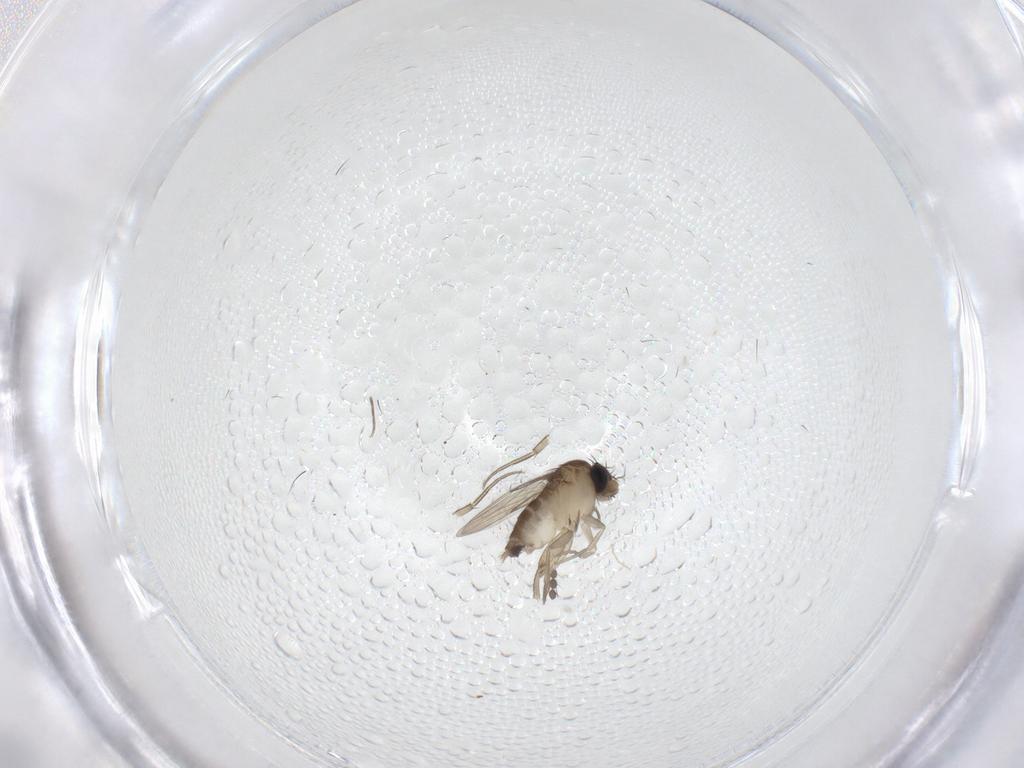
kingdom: Animalia
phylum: Arthropoda
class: Insecta
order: Diptera
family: Phoridae
